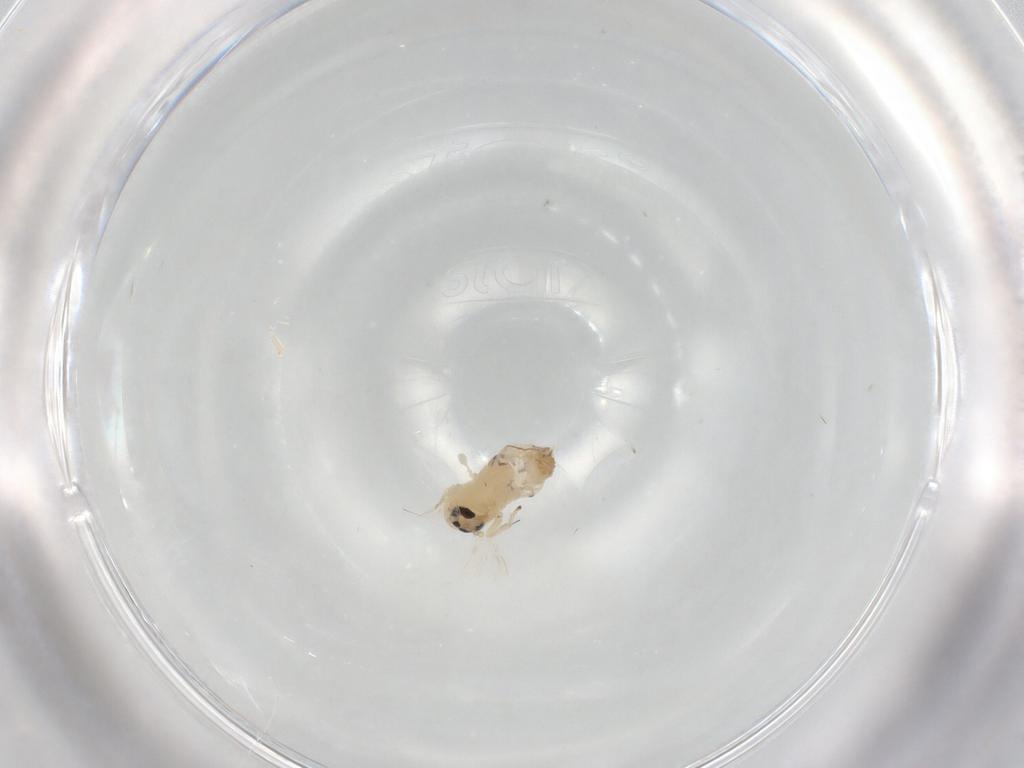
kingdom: Animalia
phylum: Arthropoda
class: Insecta
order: Diptera
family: Psychodidae
